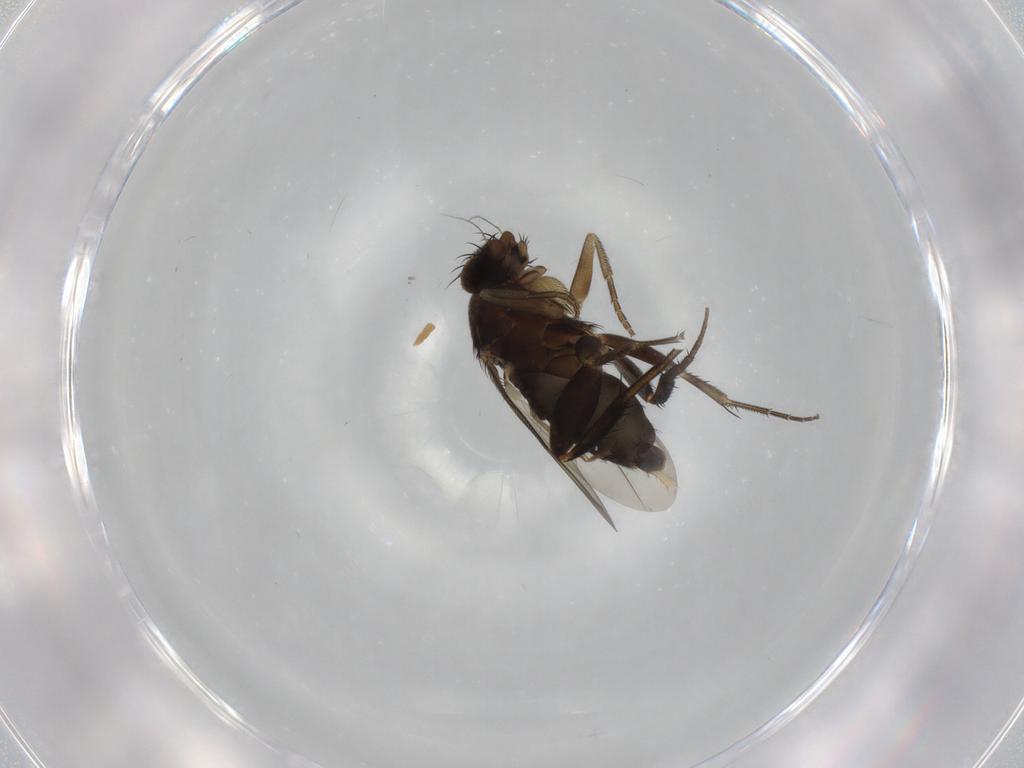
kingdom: Animalia
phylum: Arthropoda
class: Insecta
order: Diptera
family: Phoridae
